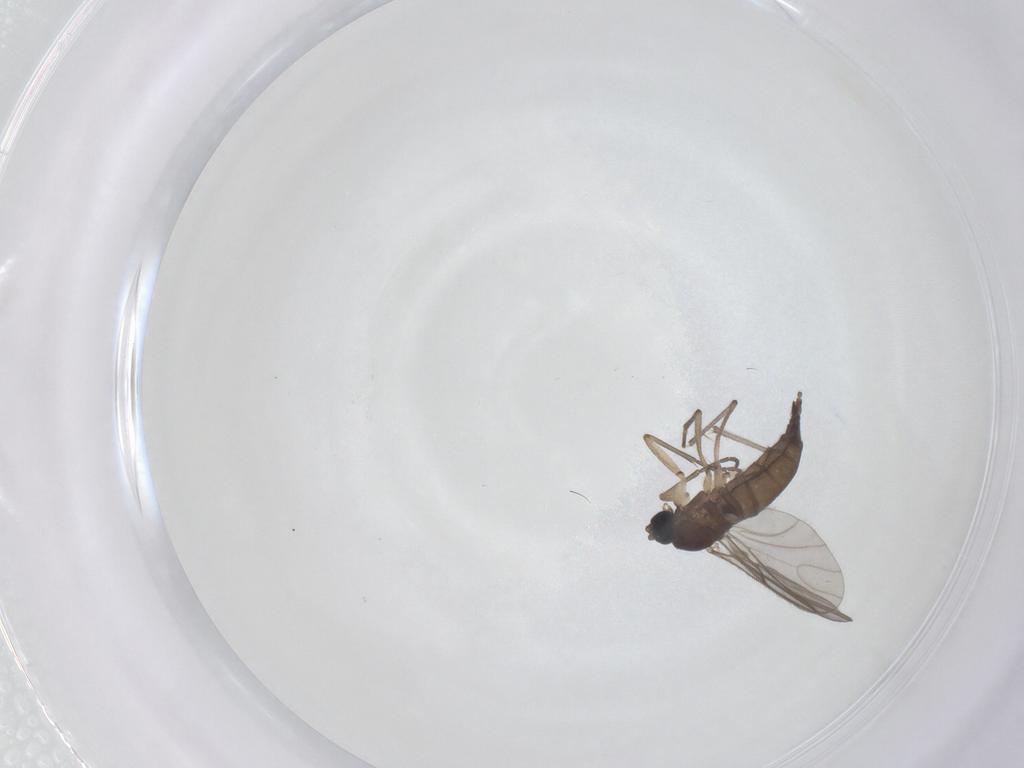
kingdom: Animalia
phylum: Arthropoda
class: Insecta
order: Diptera
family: Sciaridae
